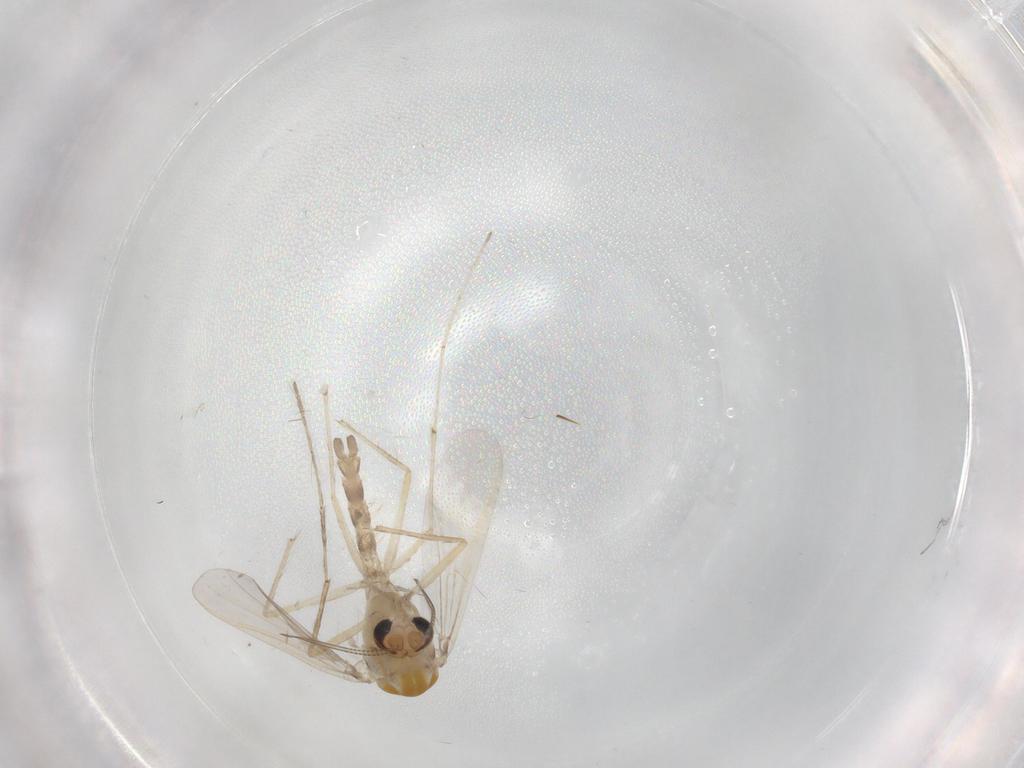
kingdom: Animalia
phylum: Arthropoda
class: Insecta
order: Diptera
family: Chironomidae
